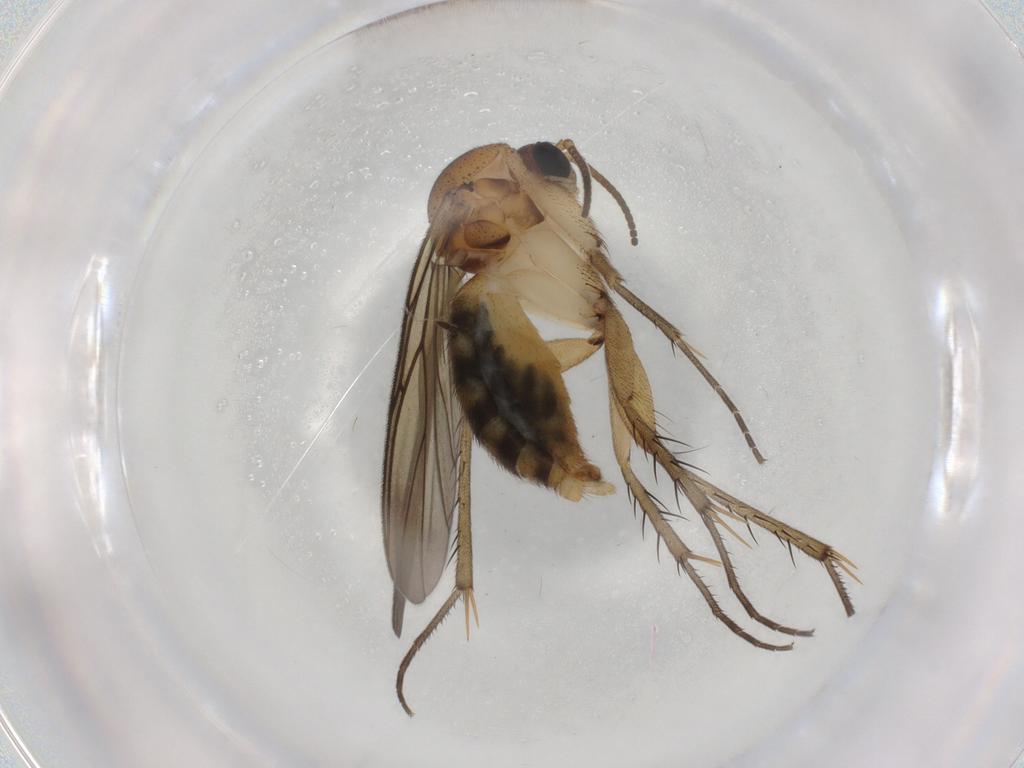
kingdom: Animalia
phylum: Arthropoda
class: Insecta
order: Diptera
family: Mycetophilidae
